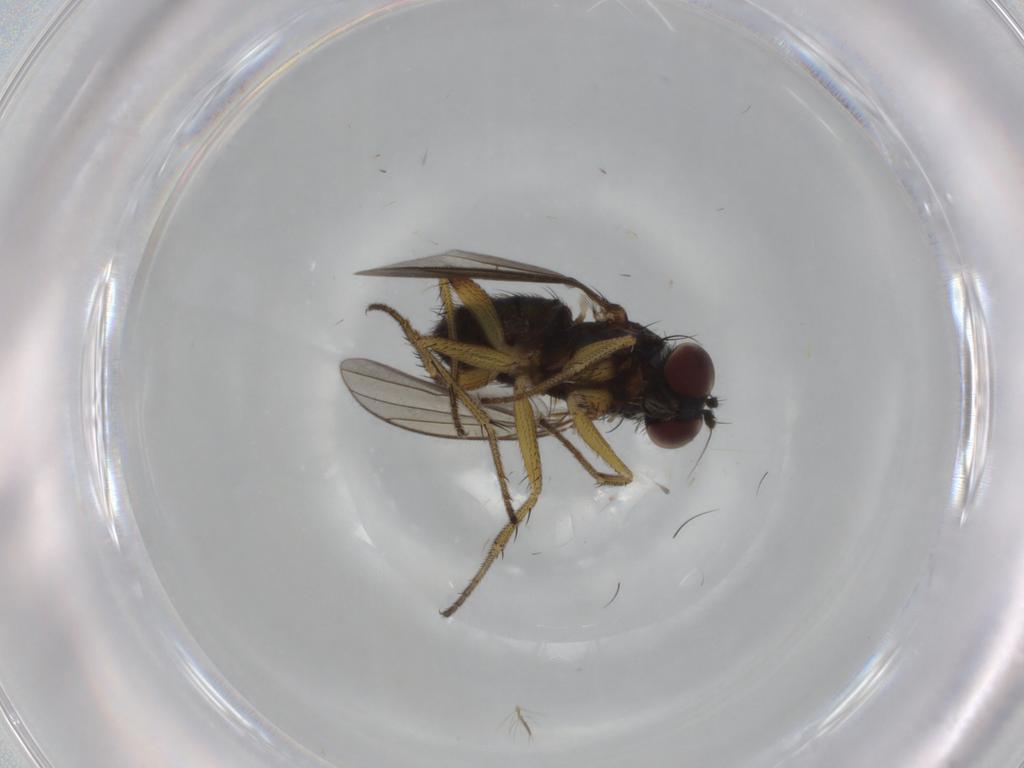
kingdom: Animalia
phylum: Arthropoda
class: Insecta
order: Diptera
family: Dolichopodidae
